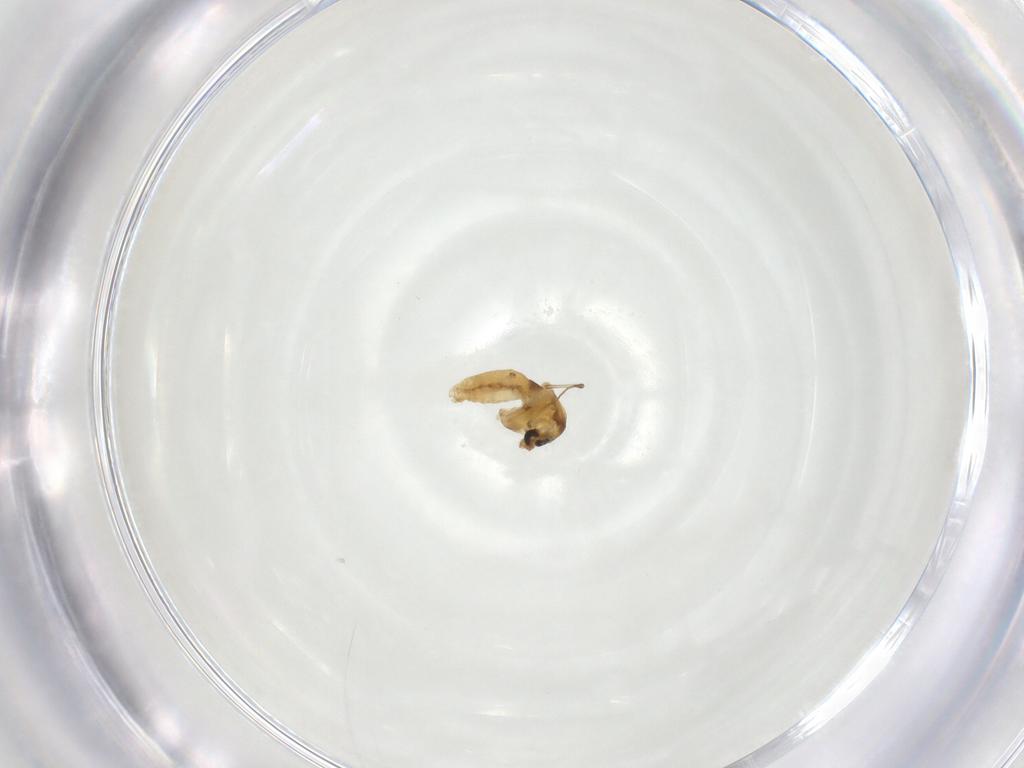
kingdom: Animalia
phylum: Arthropoda
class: Insecta
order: Diptera
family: Chironomidae
